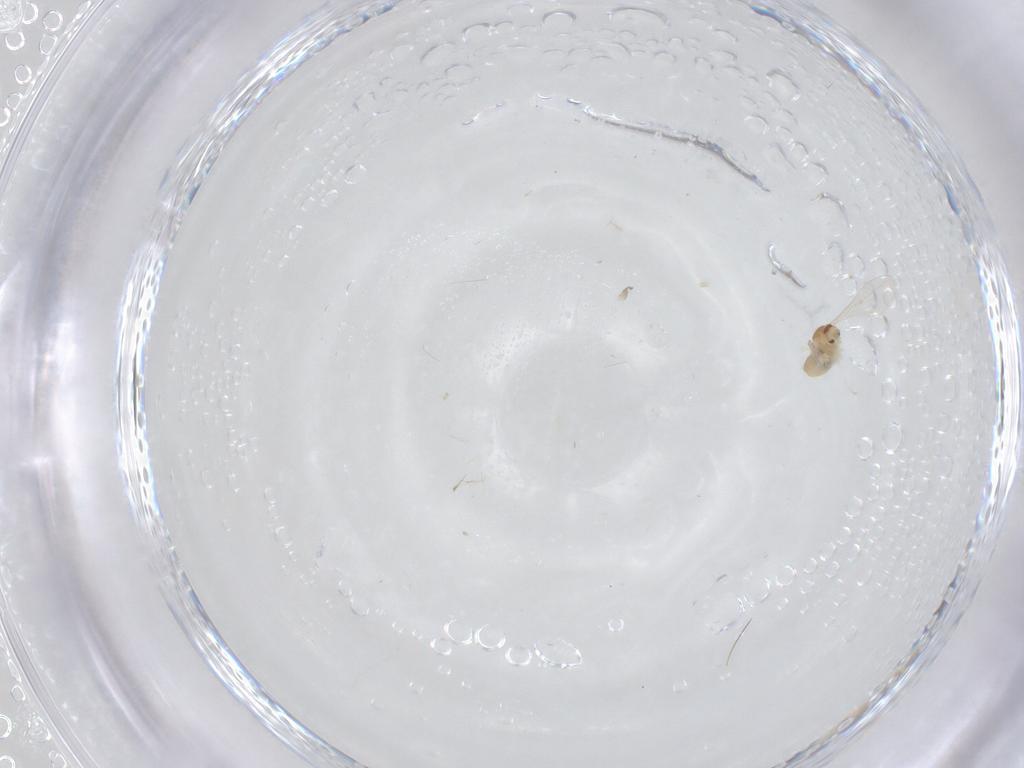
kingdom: Animalia
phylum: Arthropoda
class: Insecta
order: Diptera
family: Cecidomyiidae
